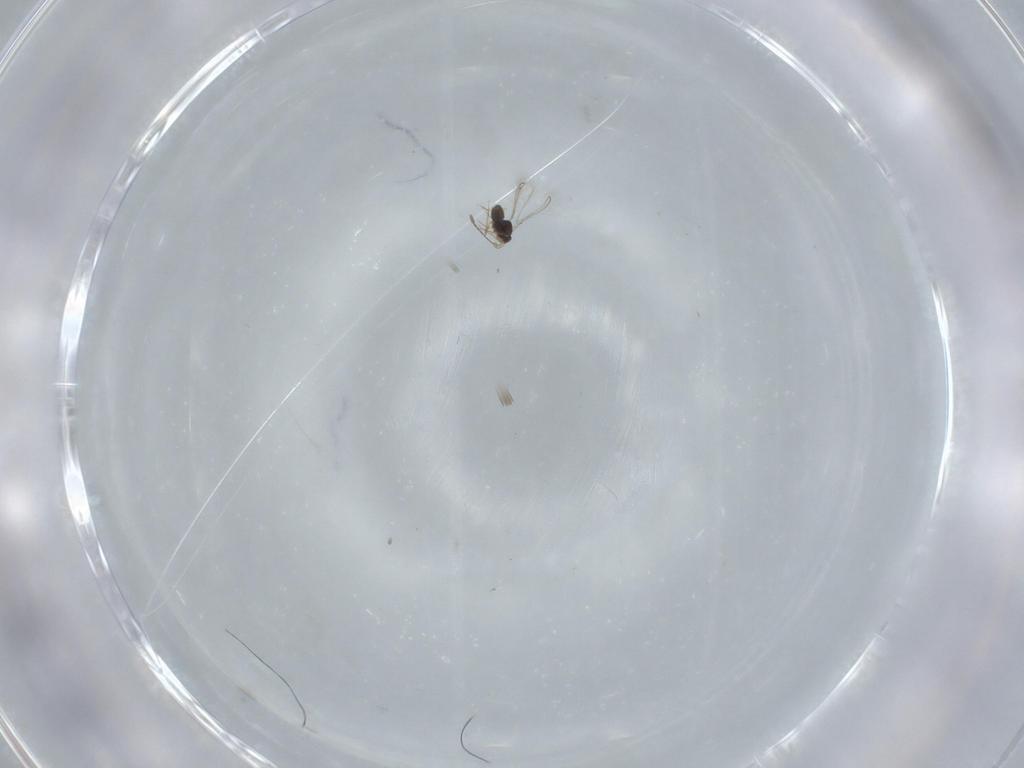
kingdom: Animalia
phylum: Arthropoda
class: Insecta
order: Hymenoptera
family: Mymaridae
